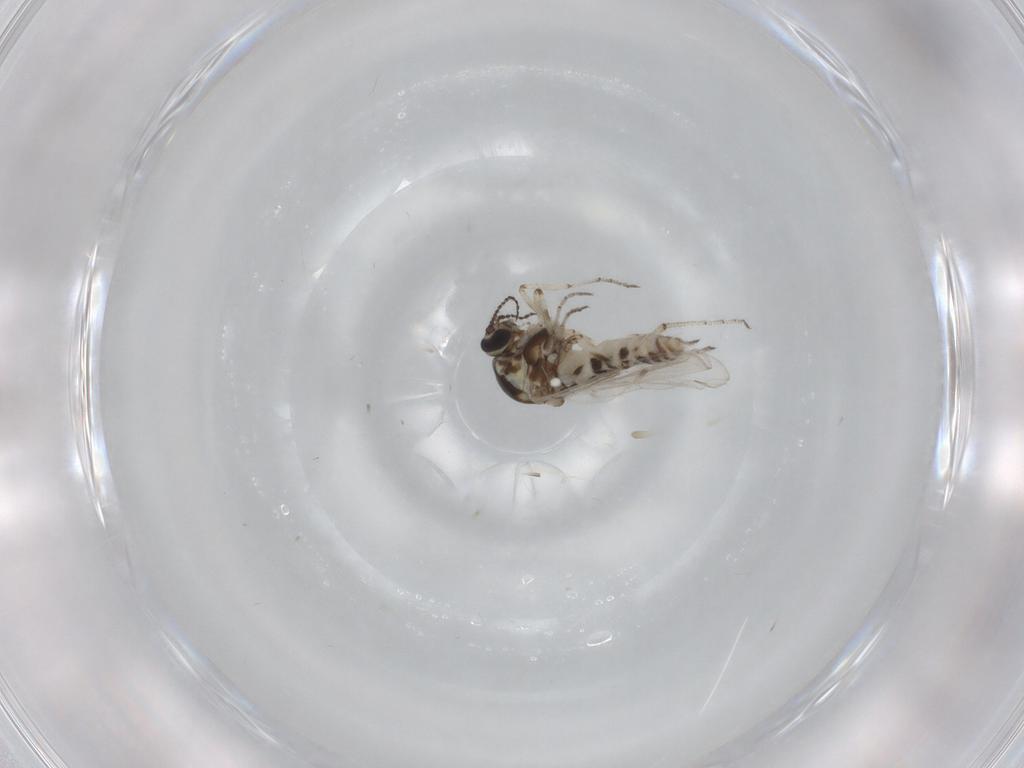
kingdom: Animalia
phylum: Arthropoda
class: Insecta
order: Diptera
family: Ceratopogonidae
